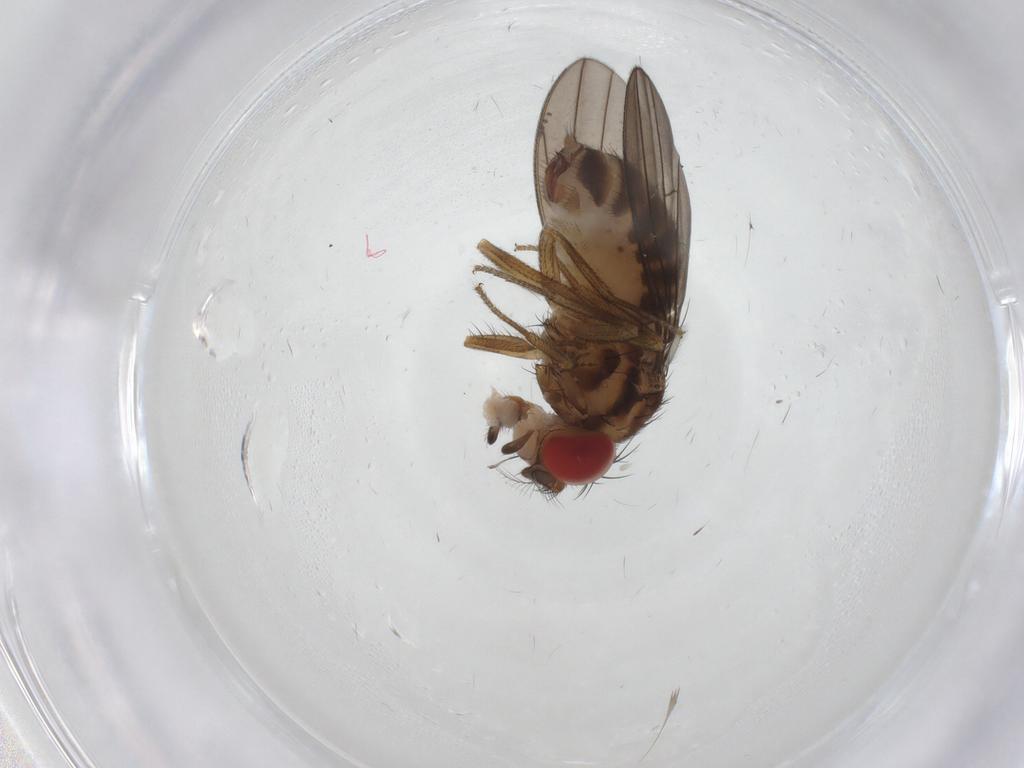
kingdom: Animalia
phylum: Arthropoda
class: Insecta
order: Diptera
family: Drosophilidae
